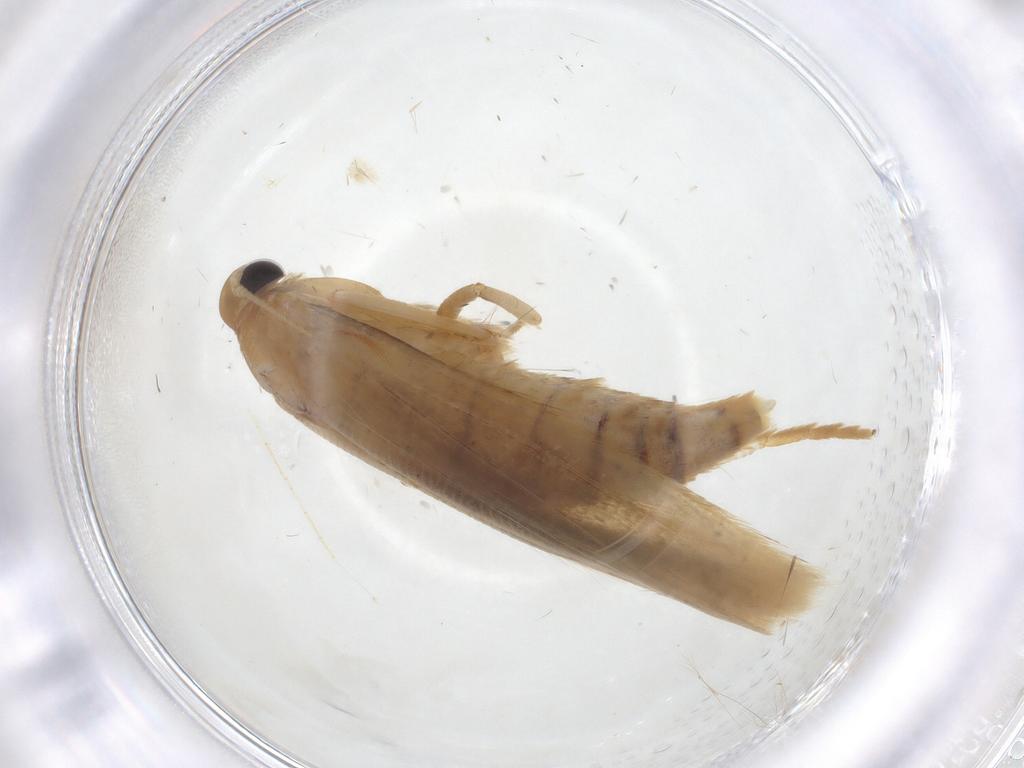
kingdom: Animalia
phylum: Arthropoda
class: Insecta
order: Lepidoptera
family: Stathmopodidae
